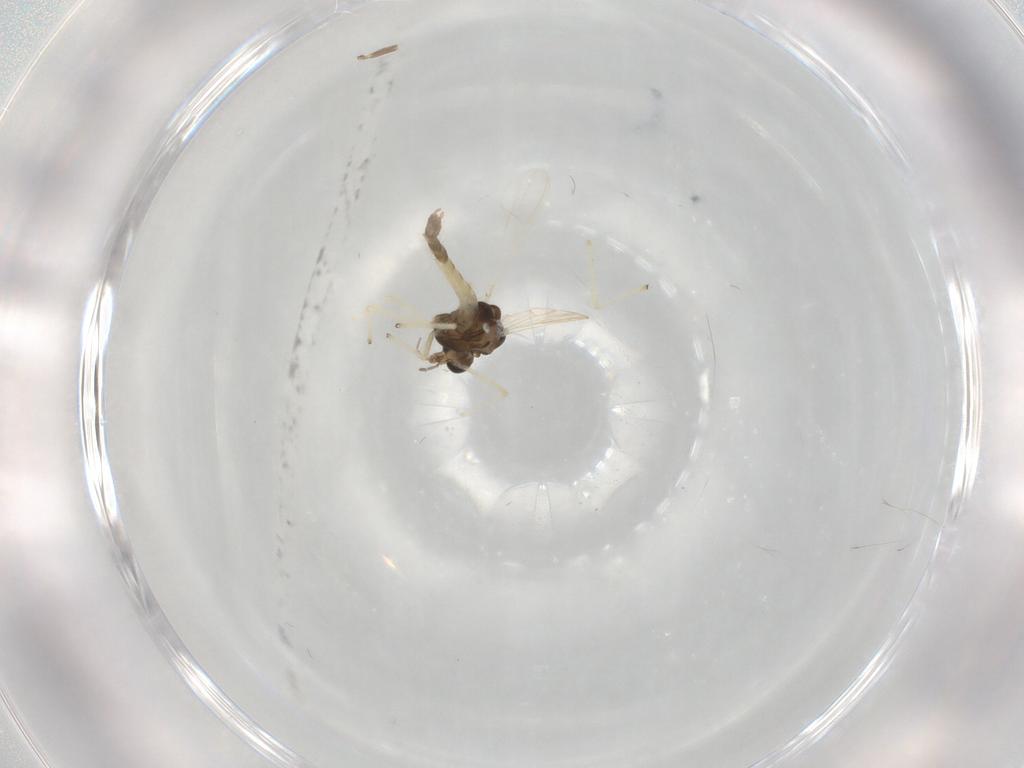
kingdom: Animalia
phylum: Arthropoda
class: Insecta
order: Diptera
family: Chironomidae
